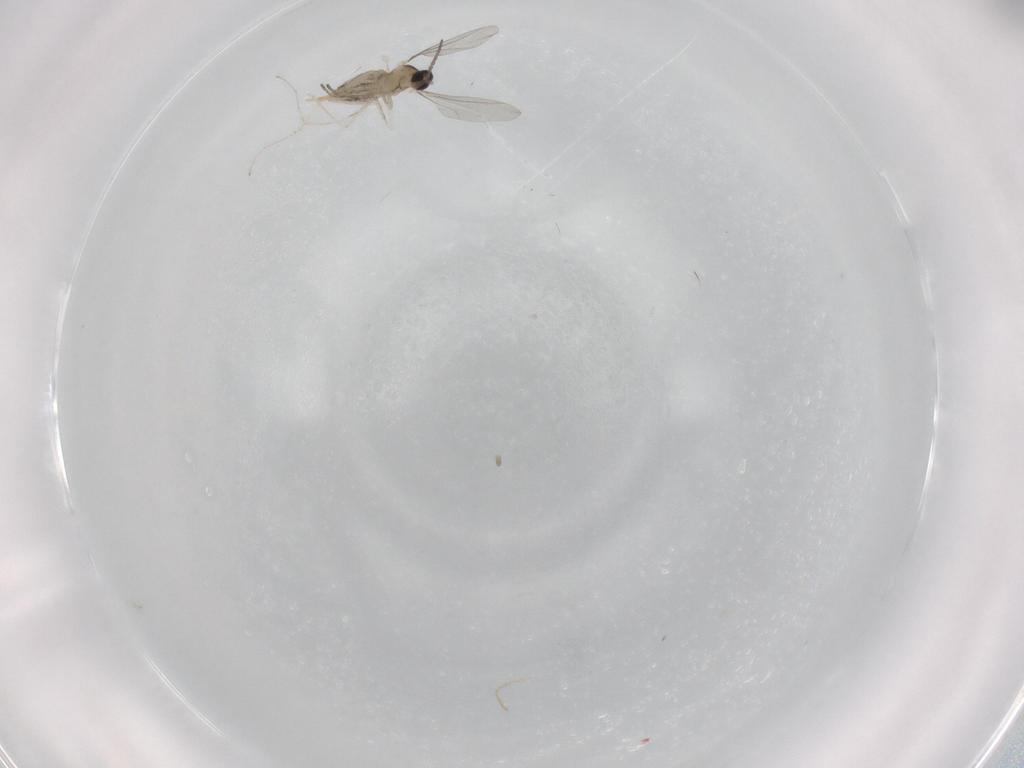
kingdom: Animalia
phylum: Arthropoda
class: Insecta
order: Diptera
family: Cecidomyiidae
